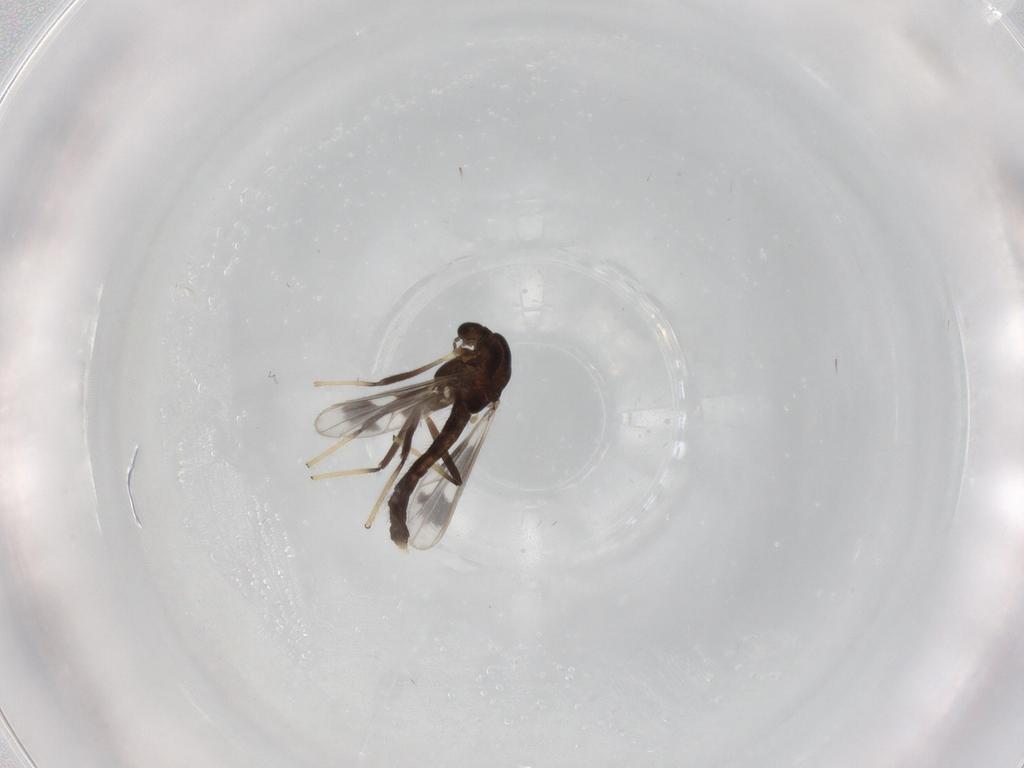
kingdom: Animalia
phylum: Arthropoda
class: Insecta
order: Diptera
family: Chironomidae
